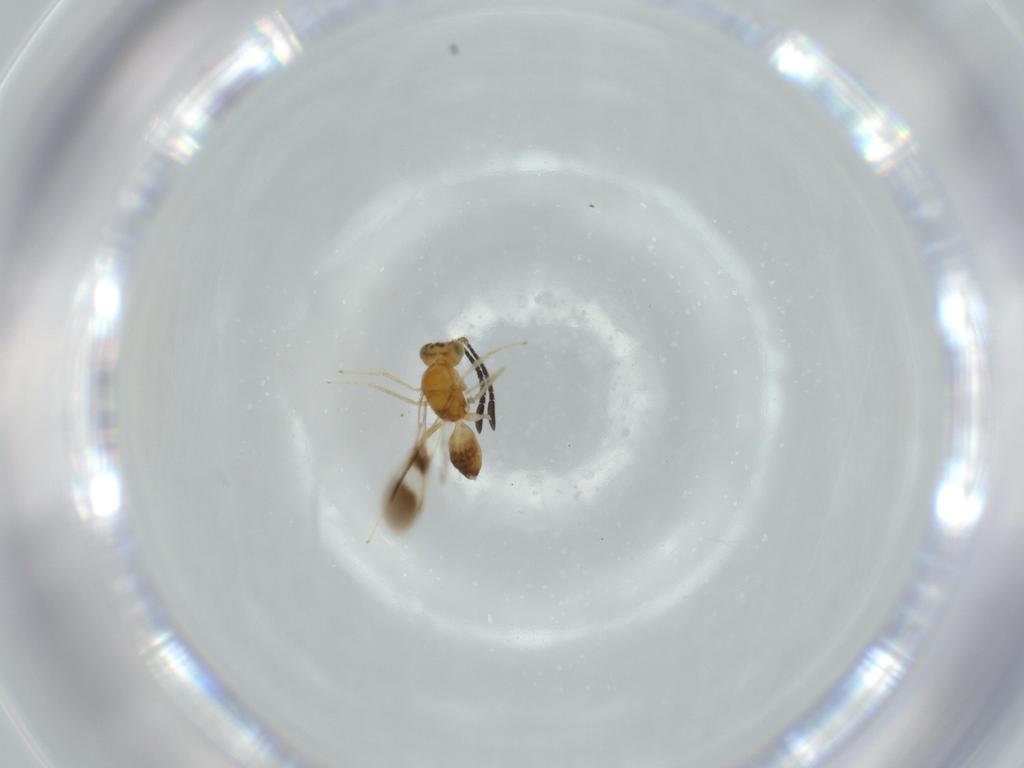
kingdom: Animalia
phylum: Arthropoda
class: Insecta
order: Hymenoptera
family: Mymaridae
